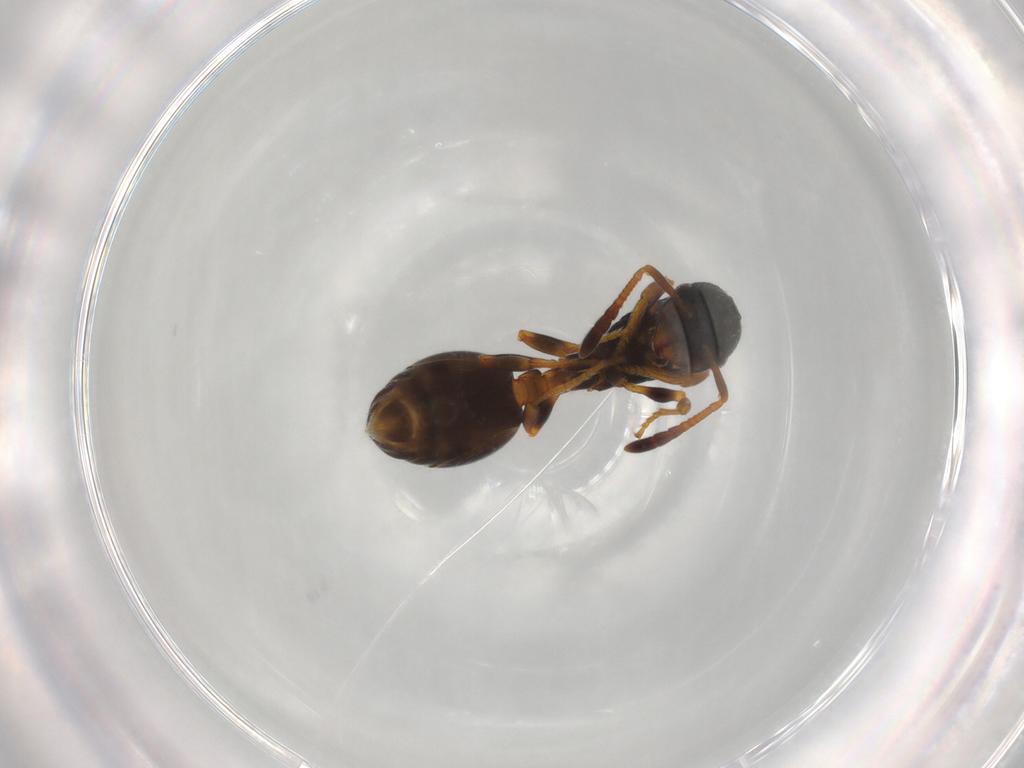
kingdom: Animalia
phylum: Arthropoda
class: Insecta
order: Hymenoptera
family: Formicidae
